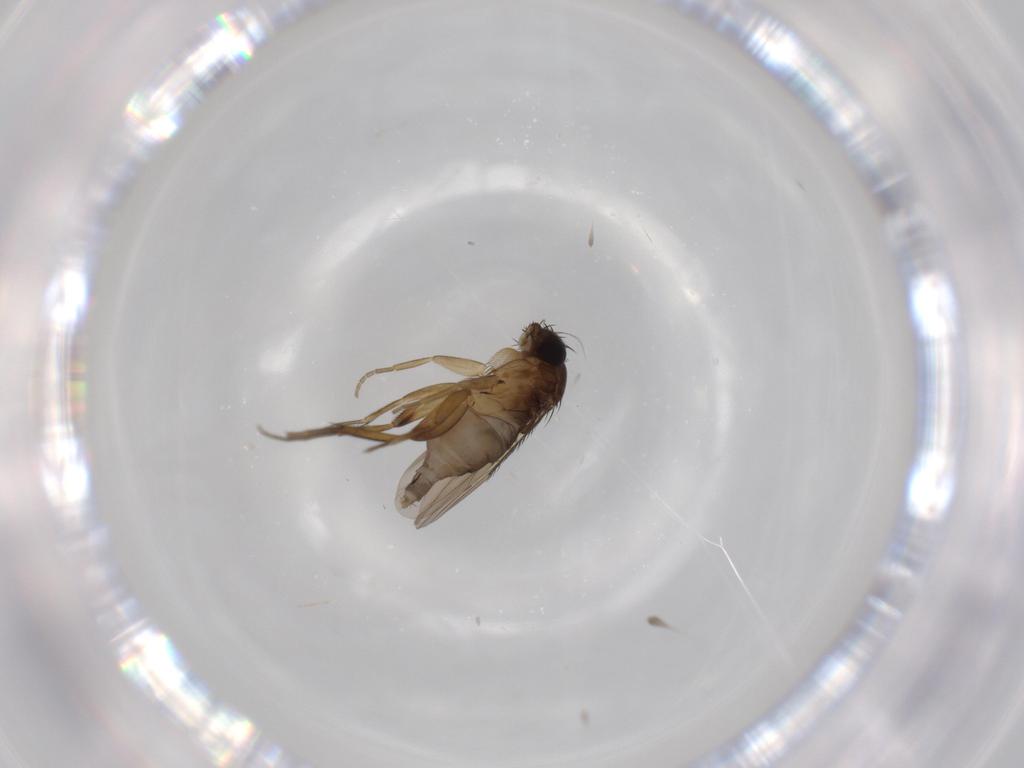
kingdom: Animalia
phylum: Arthropoda
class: Insecta
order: Diptera
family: Phoridae
